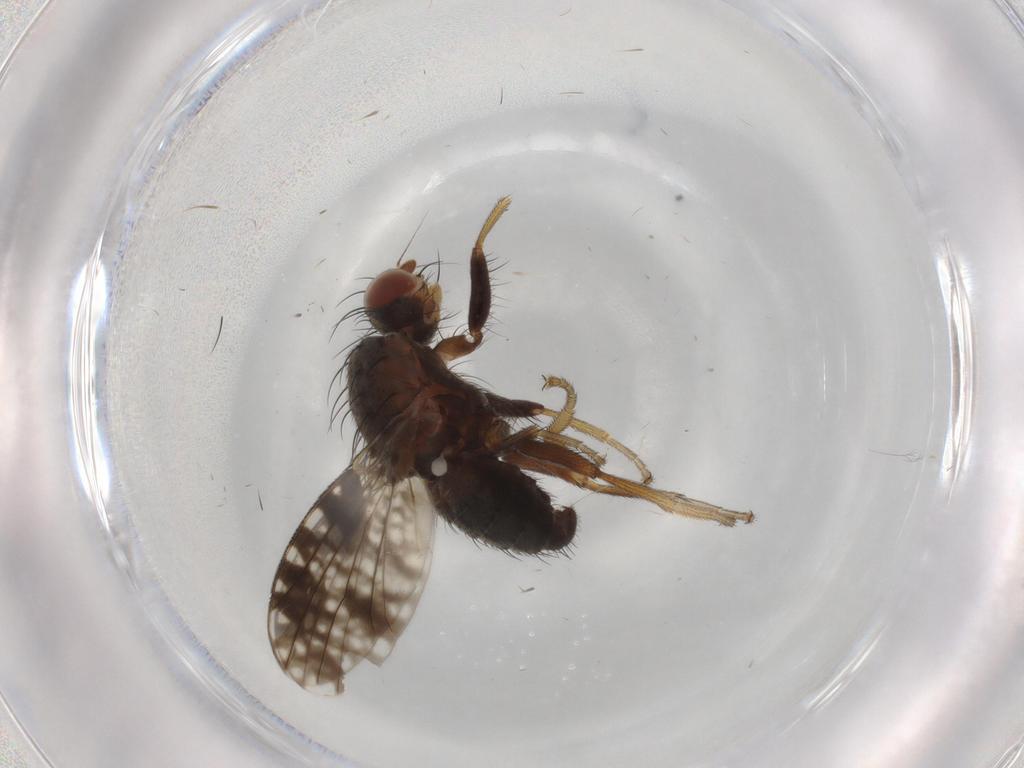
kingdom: Animalia
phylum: Arthropoda
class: Insecta
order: Diptera
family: Tephritidae
